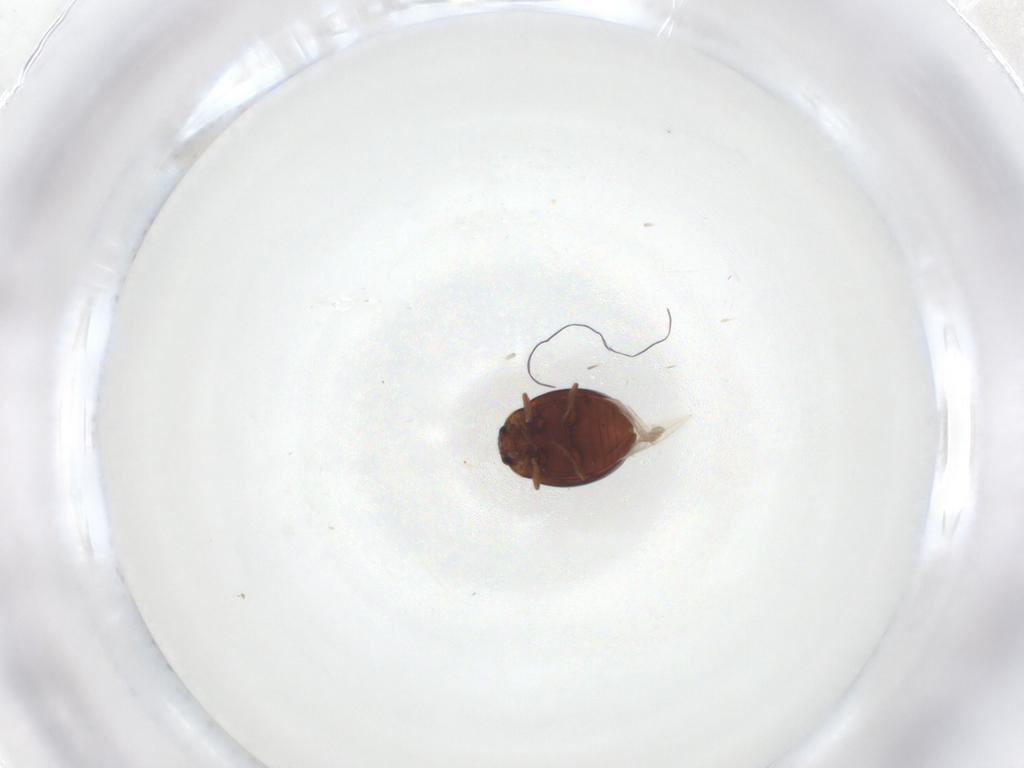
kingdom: Animalia
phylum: Arthropoda
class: Insecta
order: Coleoptera
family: Coccinellidae
